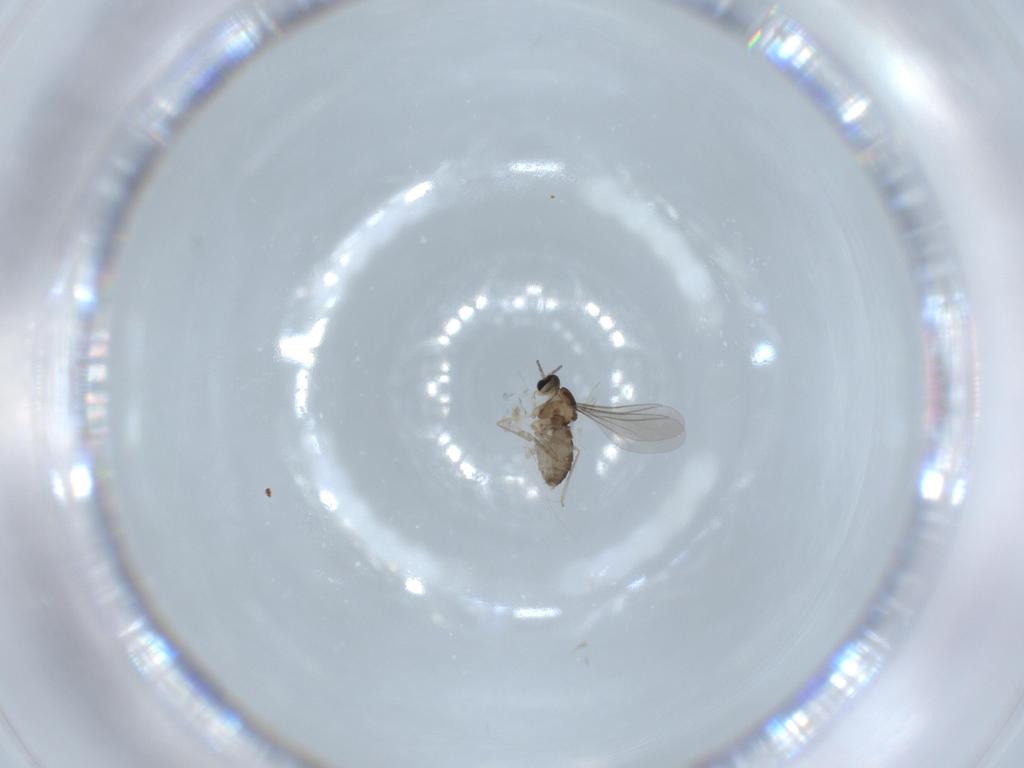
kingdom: Animalia
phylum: Arthropoda
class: Insecta
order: Diptera
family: Cecidomyiidae
